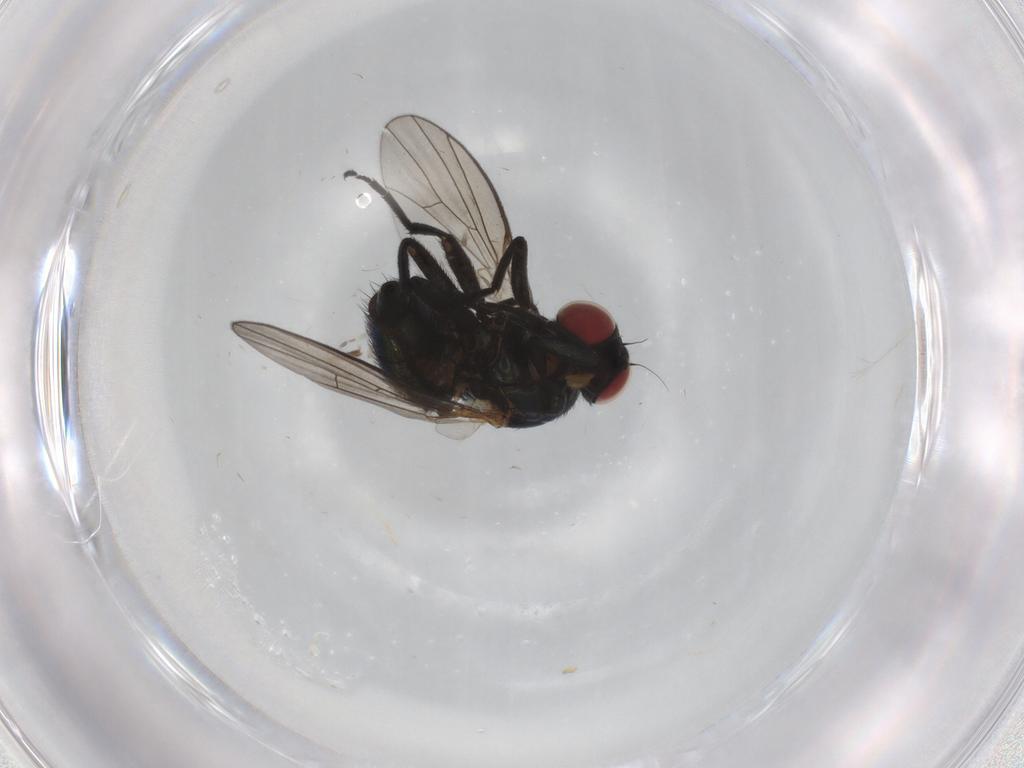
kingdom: Animalia
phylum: Arthropoda
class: Insecta
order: Diptera
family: Agromyzidae
